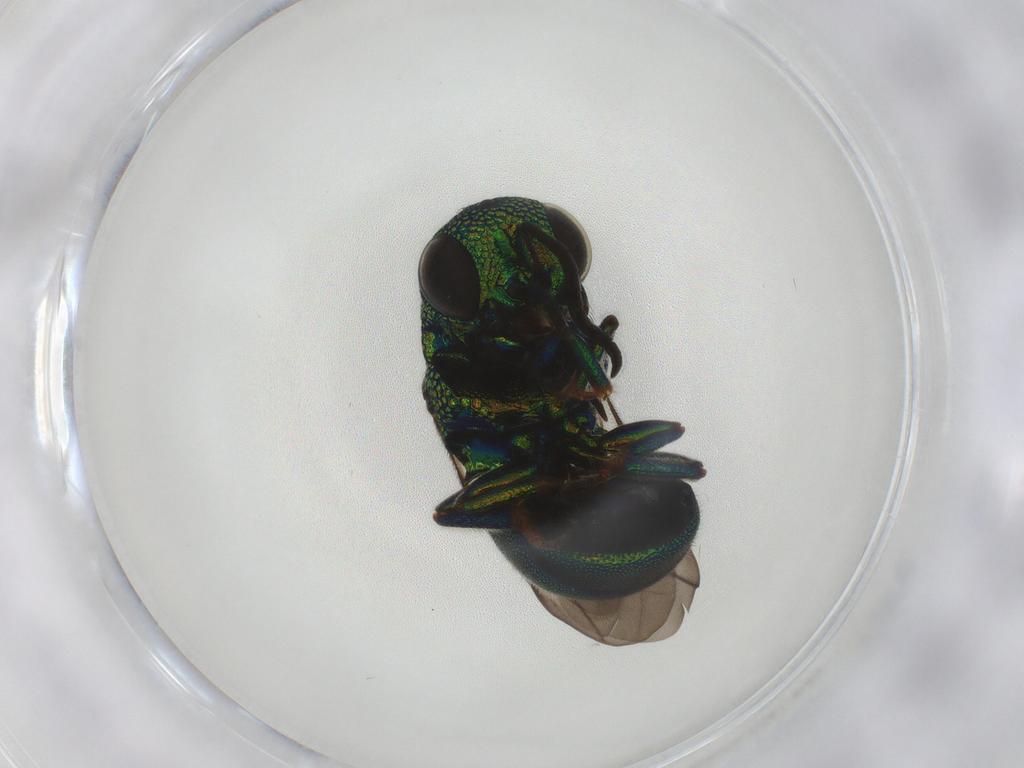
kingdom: Animalia
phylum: Arthropoda
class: Insecta
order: Hymenoptera
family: Chrysididae
